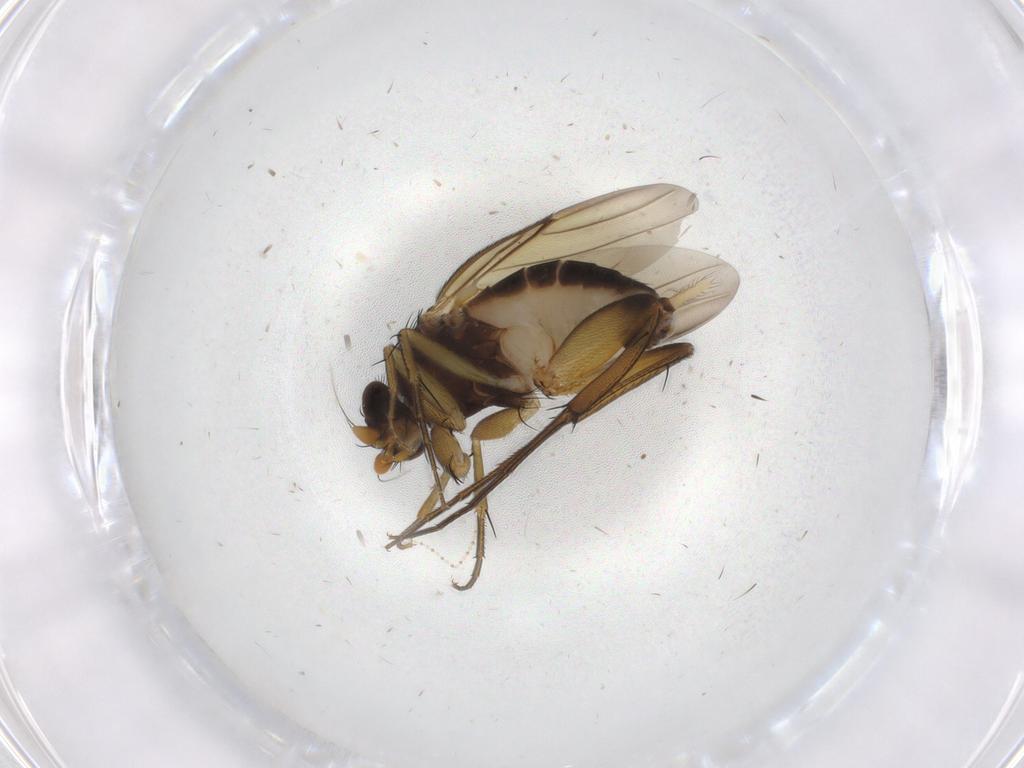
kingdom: Animalia
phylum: Arthropoda
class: Insecta
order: Diptera
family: Phoridae
